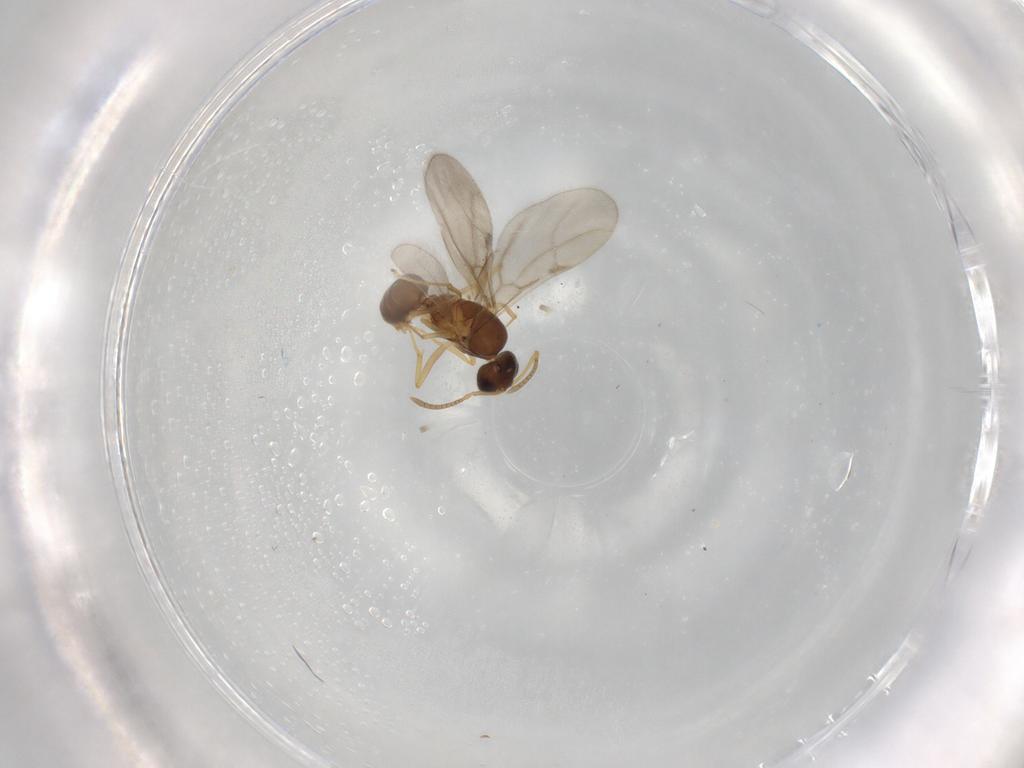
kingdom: Animalia
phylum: Arthropoda
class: Insecta
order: Hymenoptera
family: Formicidae
